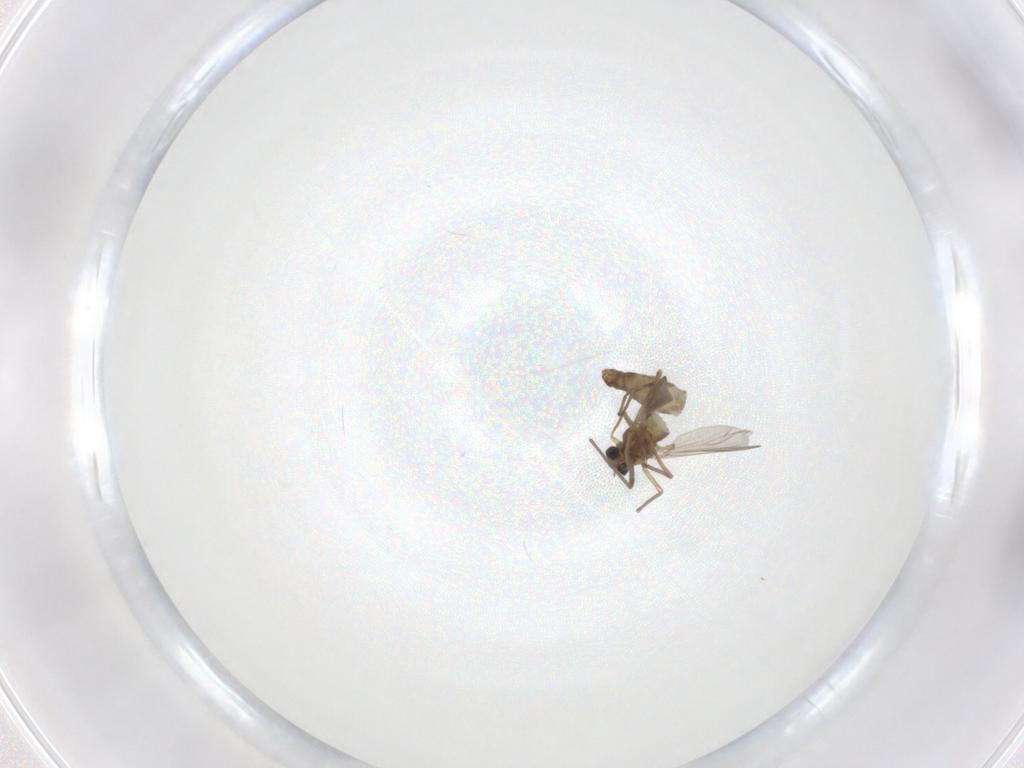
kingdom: Animalia
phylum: Arthropoda
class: Insecta
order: Diptera
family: Chironomidae
